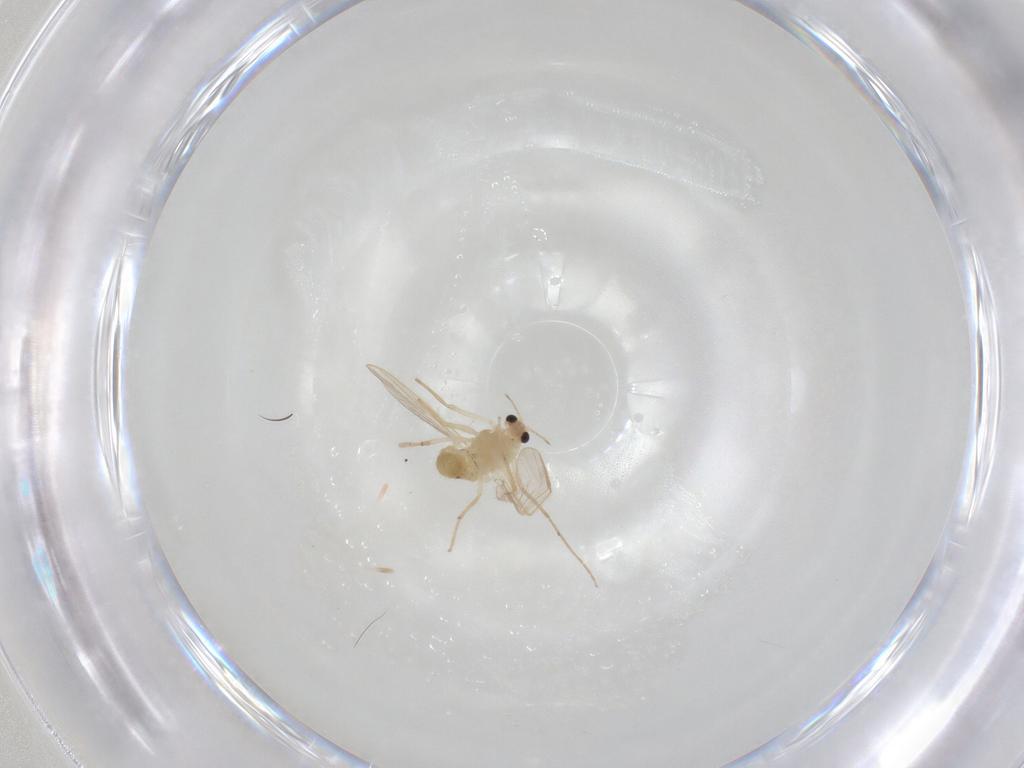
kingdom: Animalia
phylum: Arthropoda
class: Insecta
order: Diptera
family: Chironomidae
